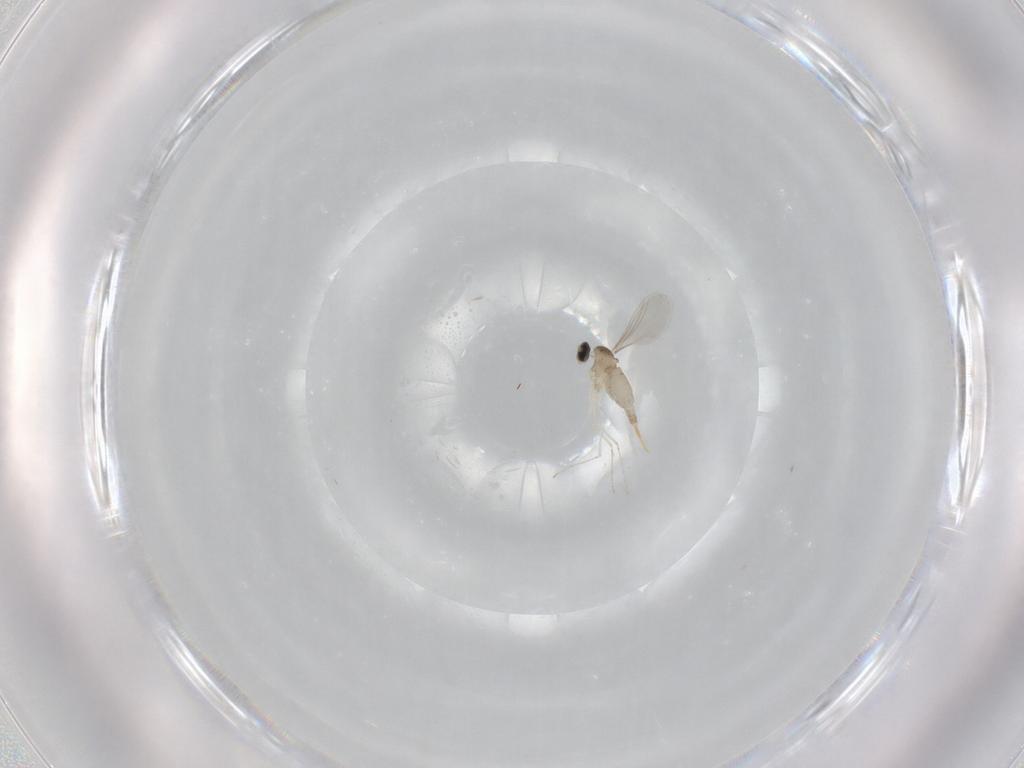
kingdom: Animalia
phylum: Arthropoda
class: Insecta
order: Diptera
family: Cecidomyiidae
